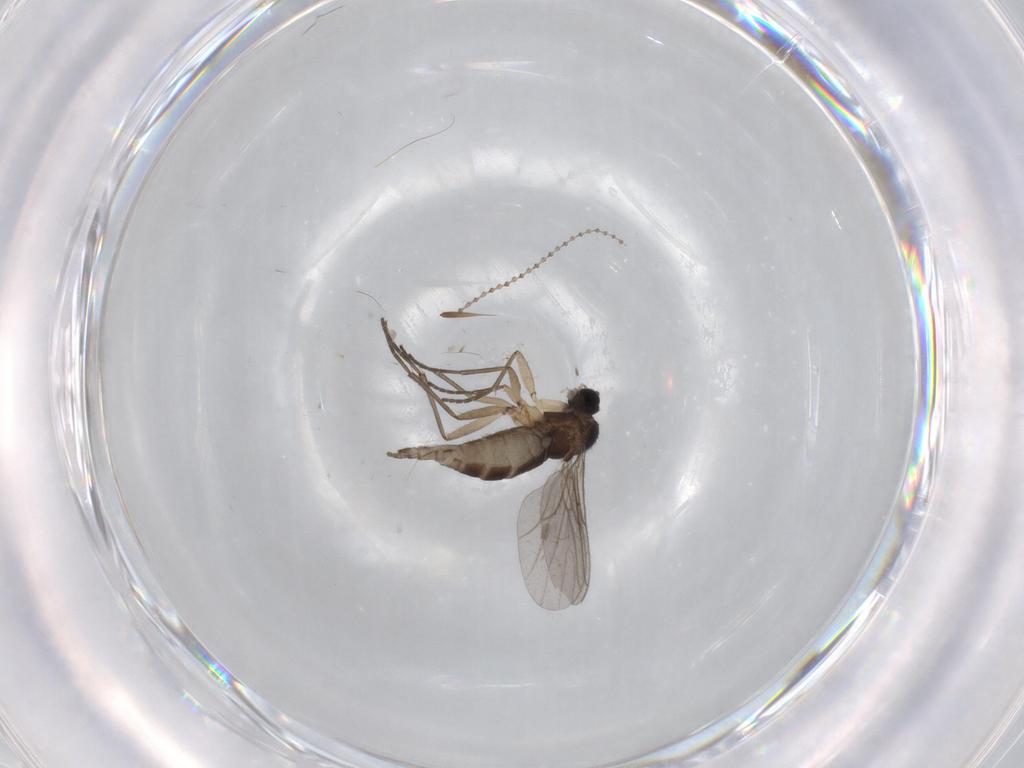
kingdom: Animalia
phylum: Arthropoda
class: Insecta
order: Diptera
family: Sciaridae
